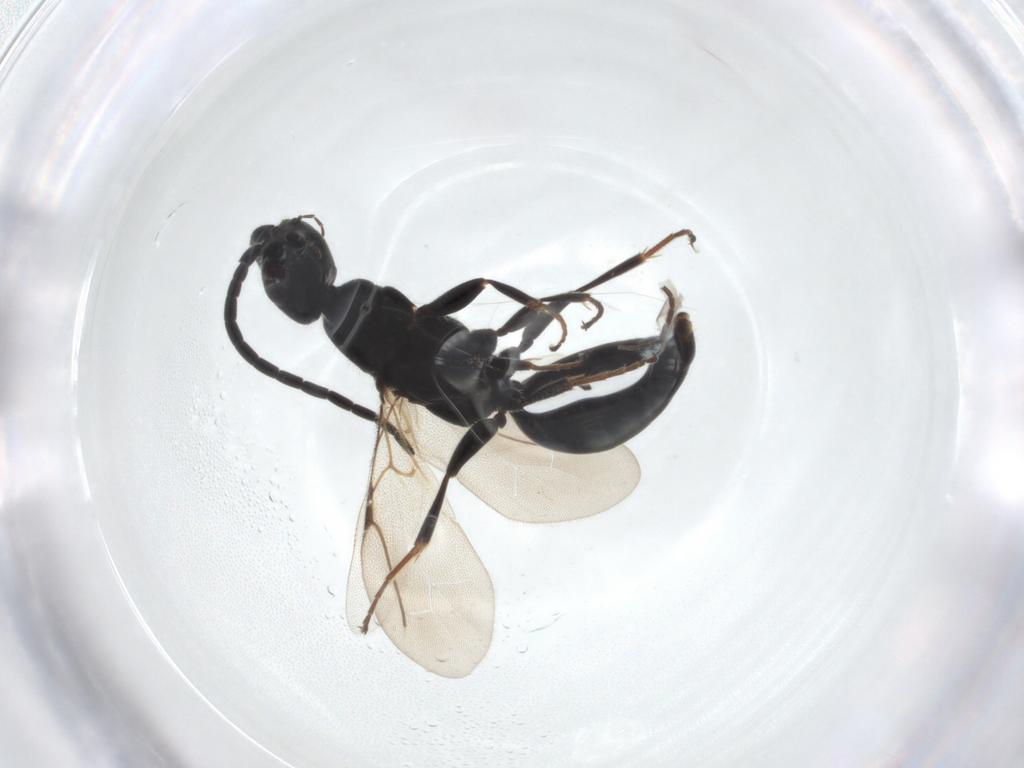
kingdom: Animalia
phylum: Arthropoda
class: Insecta
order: Hymenoptera
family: Bethylidae
